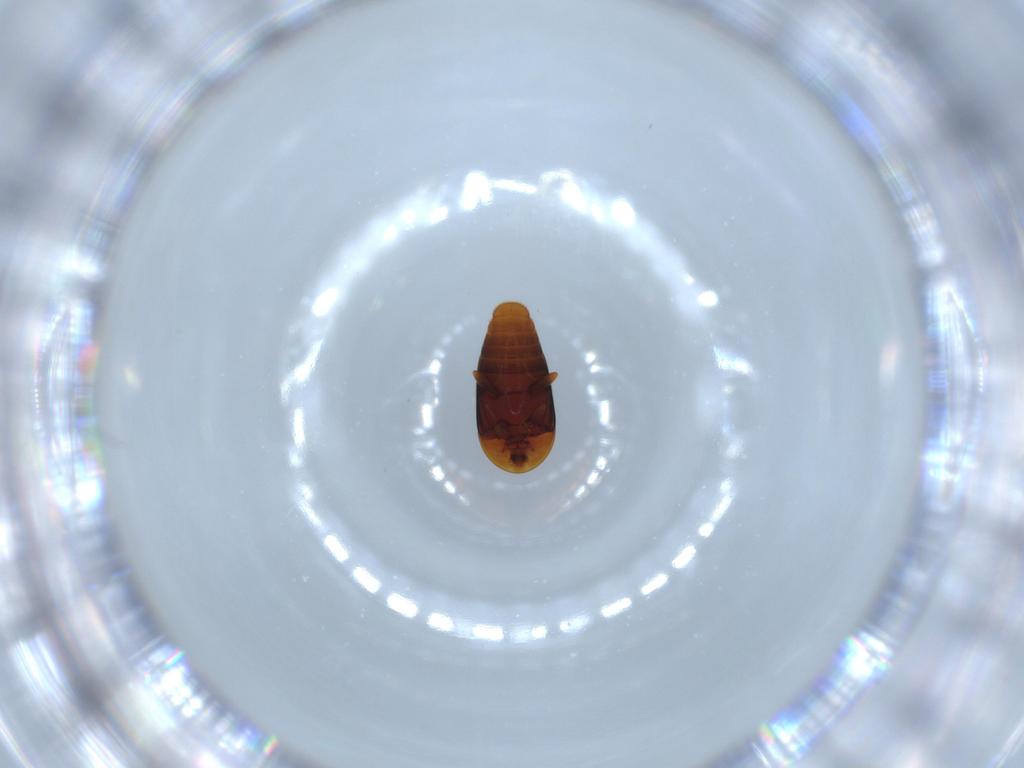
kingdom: Animalia
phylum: Arthropoda
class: Insecta
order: Coleoptera
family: Corylophidae
